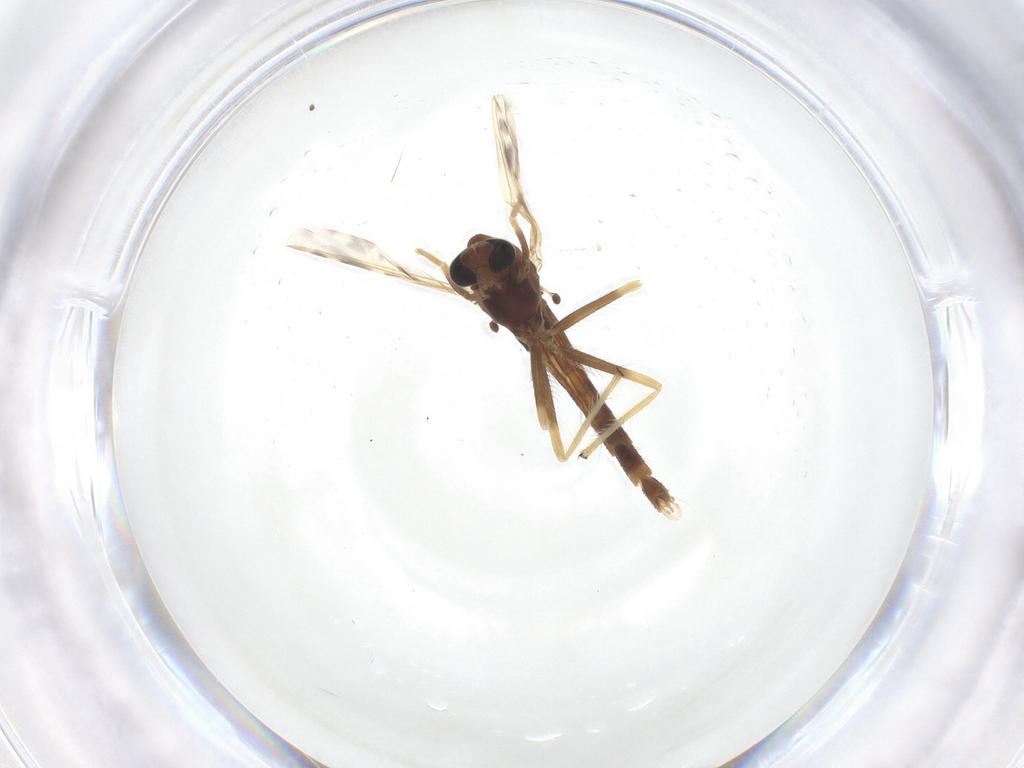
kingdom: Animalia
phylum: Arthropoda
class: Insecta
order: Diptera
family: Chironomidae
